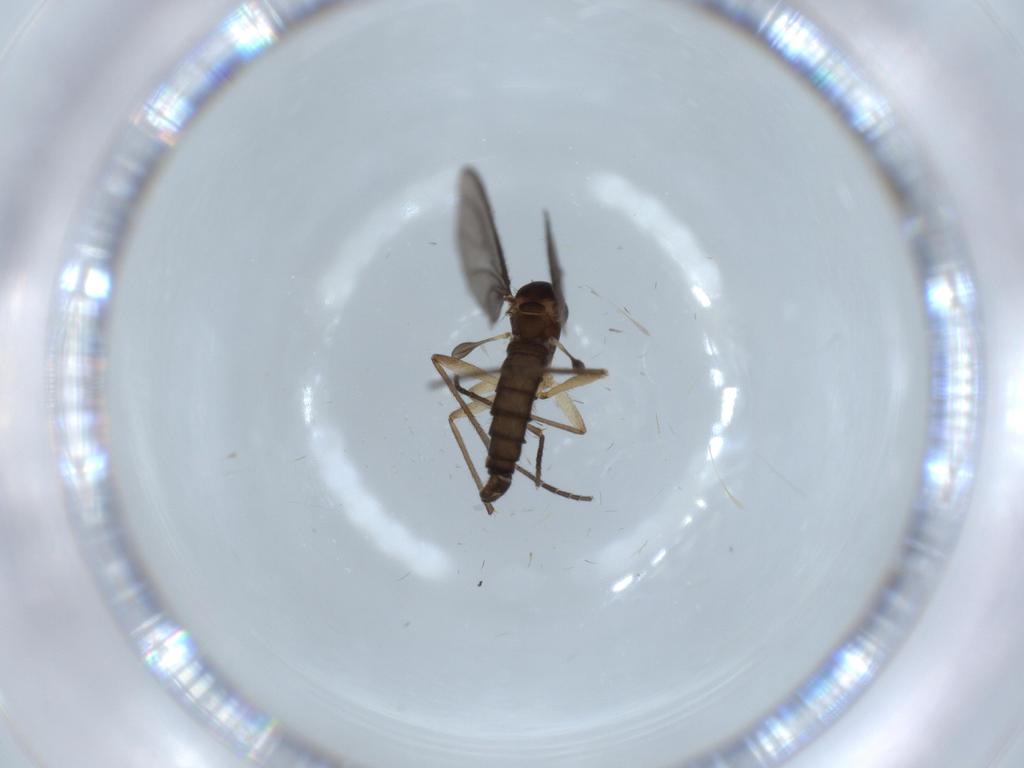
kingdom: Animalia
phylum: Arthropoda
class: Insecta
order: Diptera
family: Sciaridae
